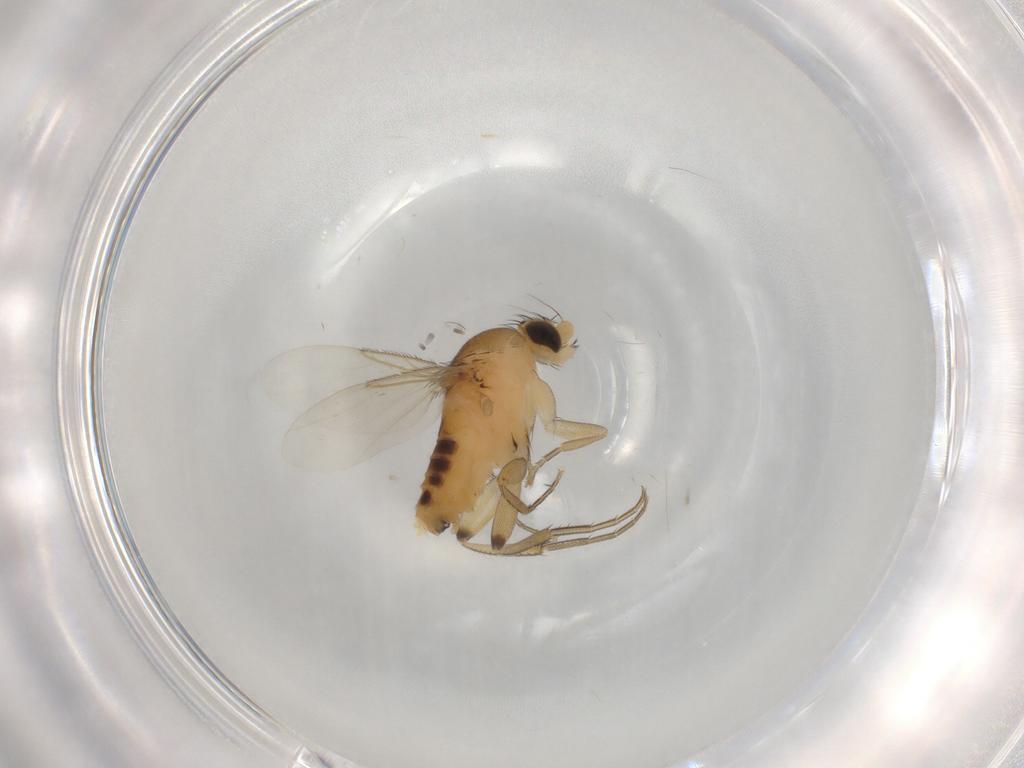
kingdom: Animalia
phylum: Arthropoda
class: Insecta
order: Diptera
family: Phoridae
